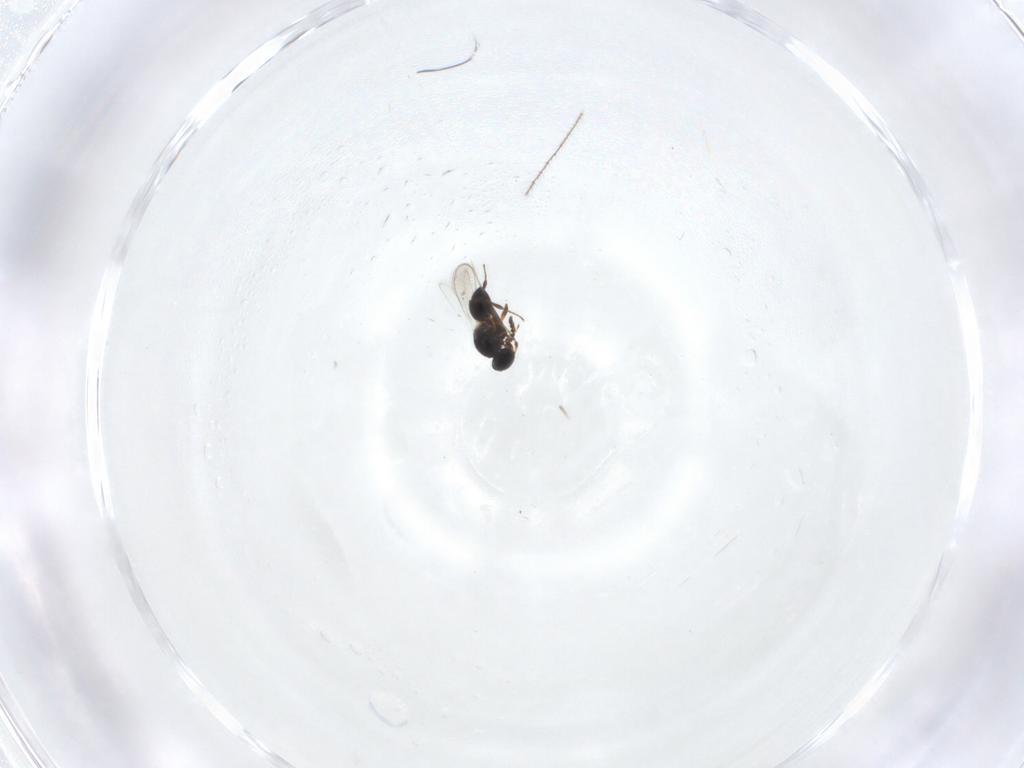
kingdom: Animalia
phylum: Arthropoda
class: Insecta
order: Hymenoptera
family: Platygastridae
